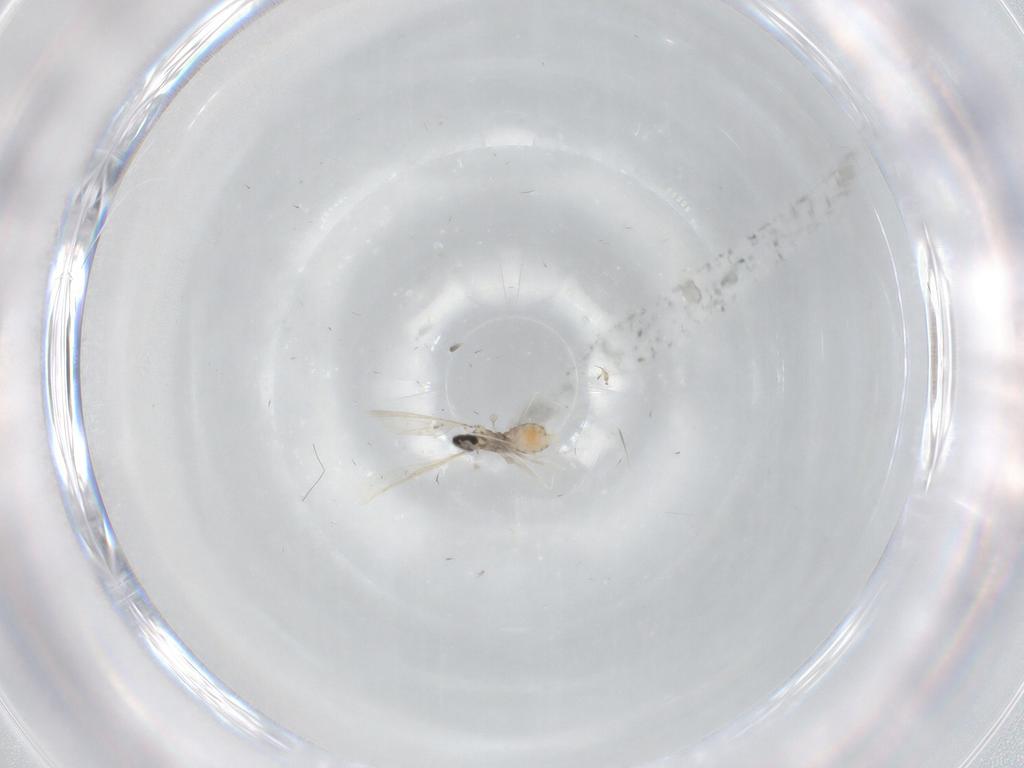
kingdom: Animalia
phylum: Arthropoda
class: Insecta
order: Diptera
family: Cecidomyiidae
